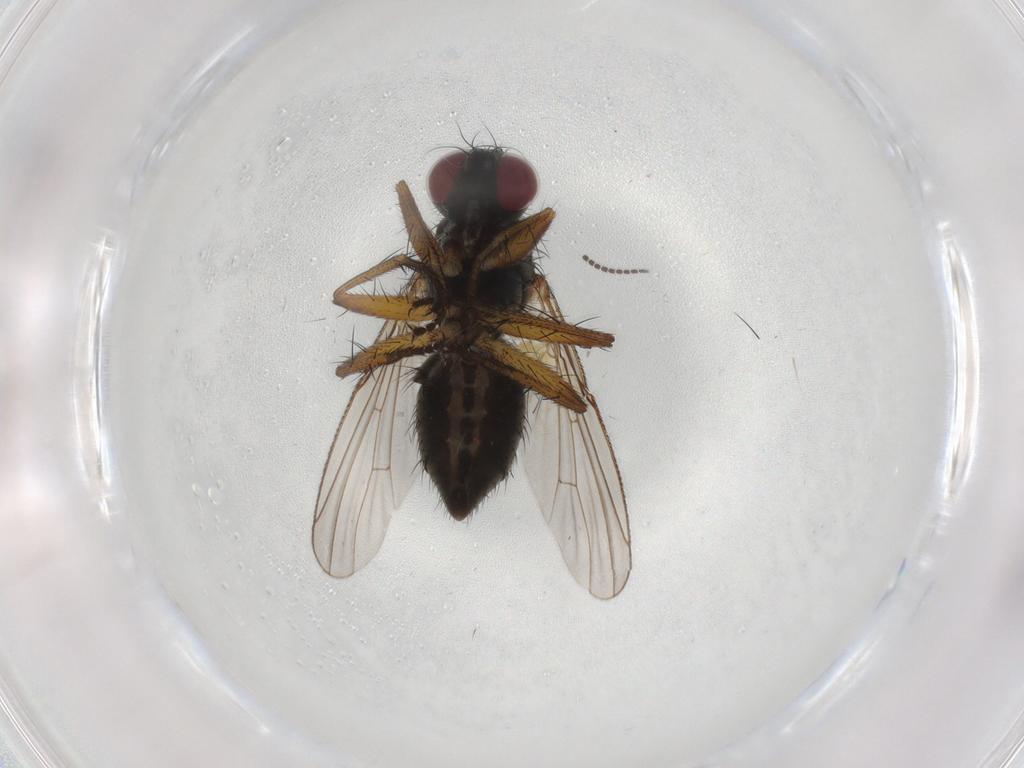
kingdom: Animalia
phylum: Arthropoda
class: Insecta
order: Diptera
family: Muscidae
